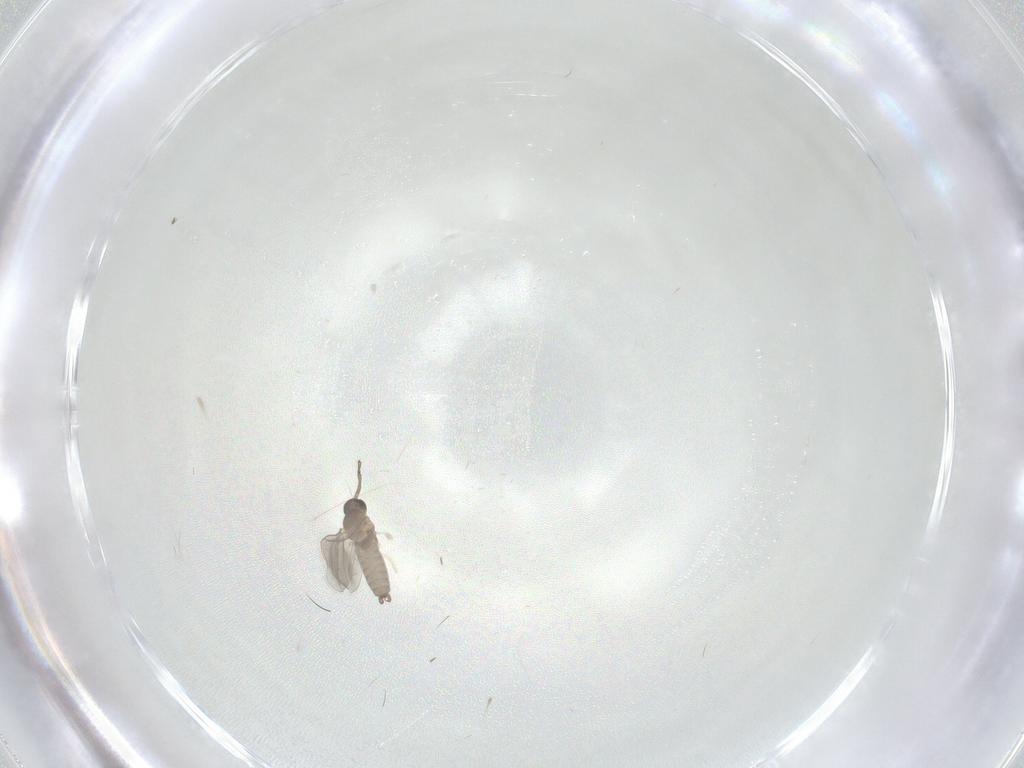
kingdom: Animalia
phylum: Arthropoda
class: Insecta
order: Diptera
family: Cecidomyiidae
